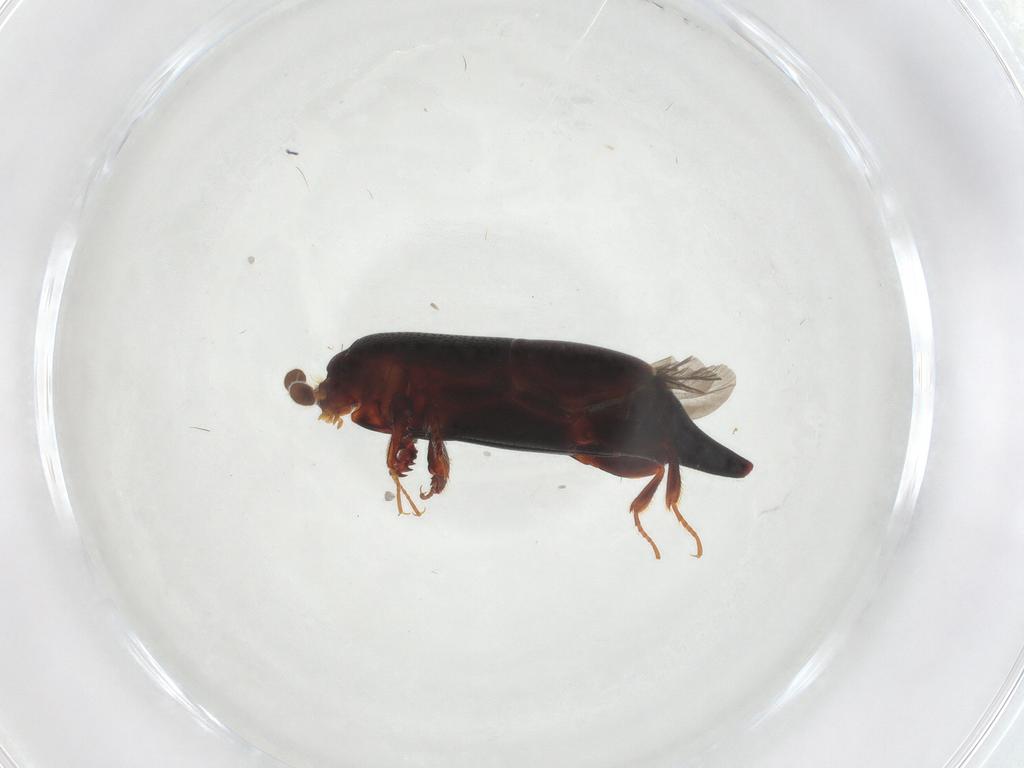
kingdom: Animalia
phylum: Arthropoda
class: Insecta
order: Coleoptera
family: Histeridae
